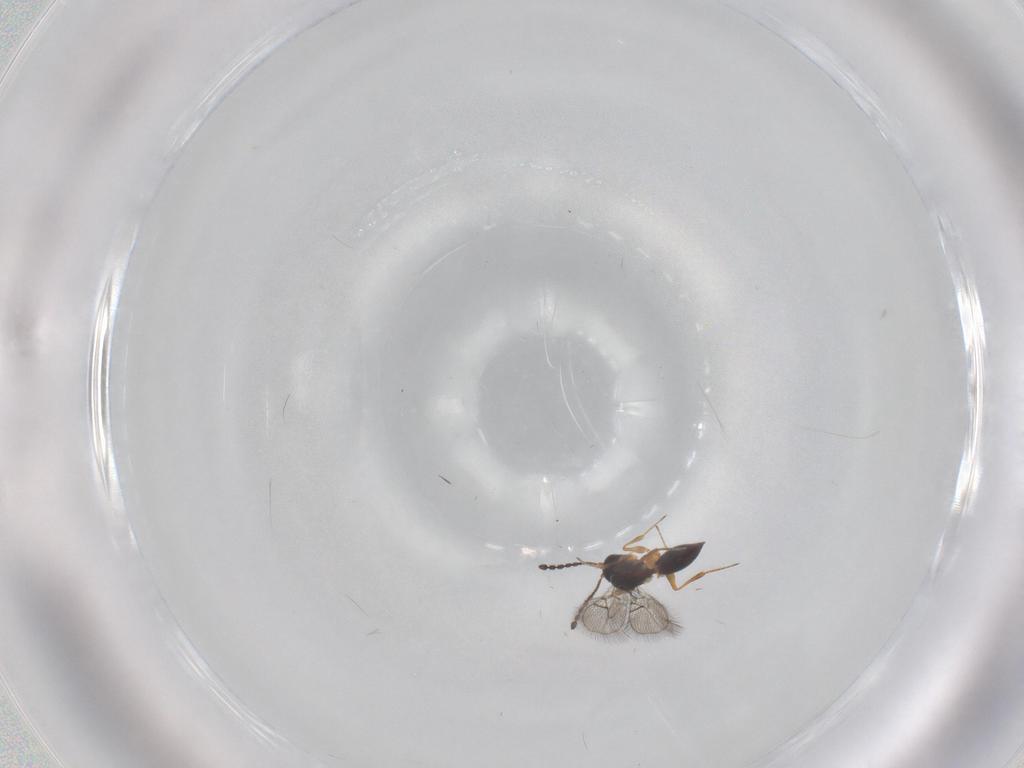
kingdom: Animalia
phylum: Arthropoda
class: Insecta
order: Hymenoptera
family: Figitidae
